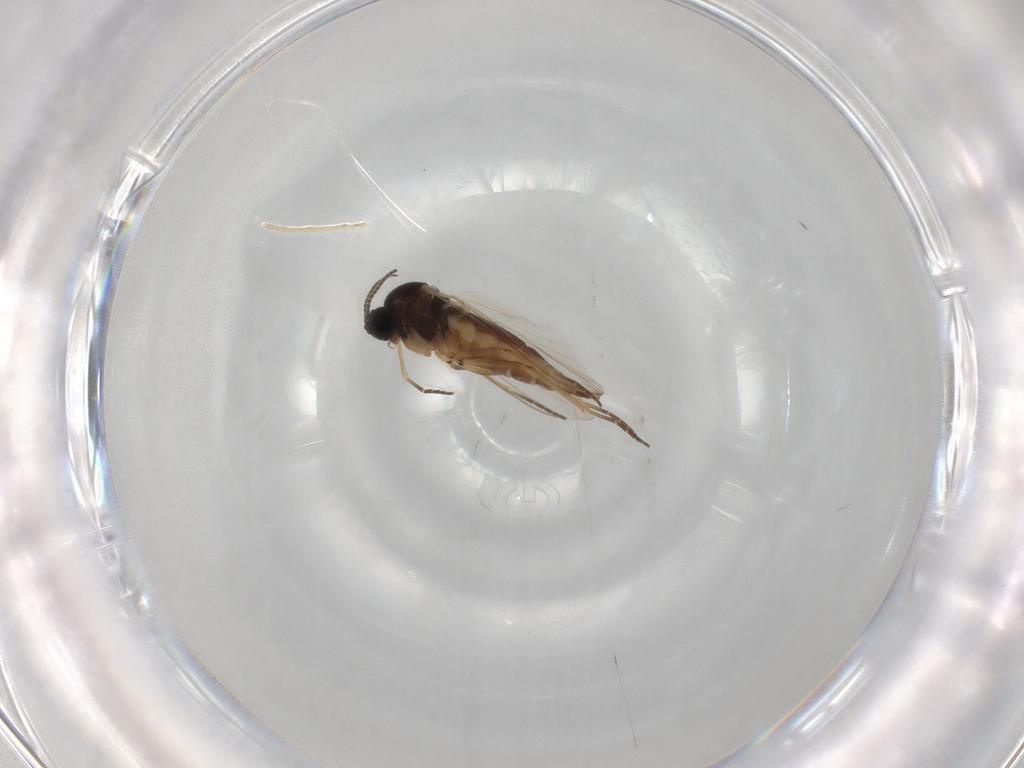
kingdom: Animalia
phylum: Arthropoda
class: Insecta
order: Diptera
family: Sciaridae
